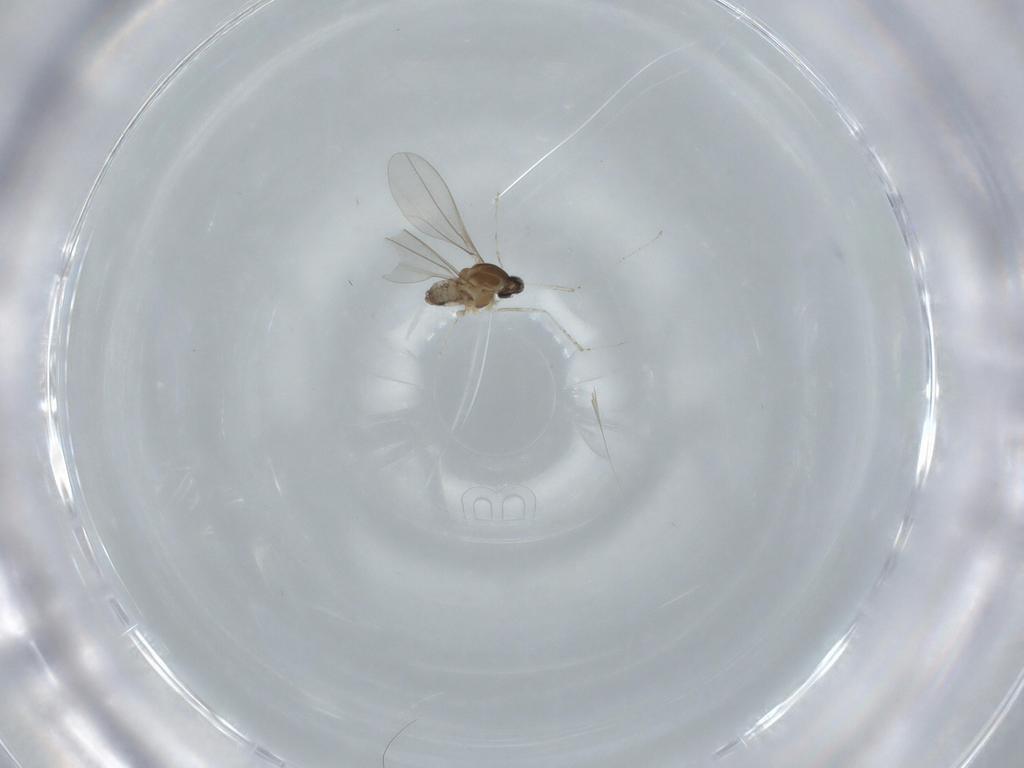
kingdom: Animalia
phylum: Arthropoda
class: Insecta
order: Diptera
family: Cecidomyiidae
